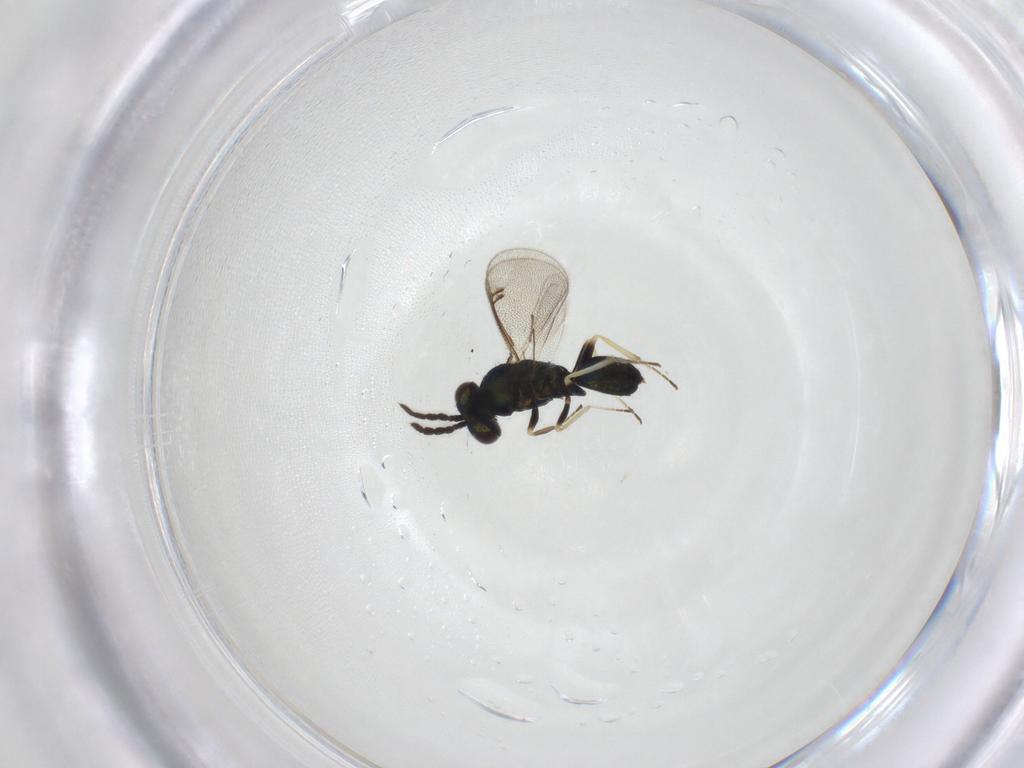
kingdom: Animalia
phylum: Arthropoda
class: Insecta
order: Hymenoptera
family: Eulophidae
